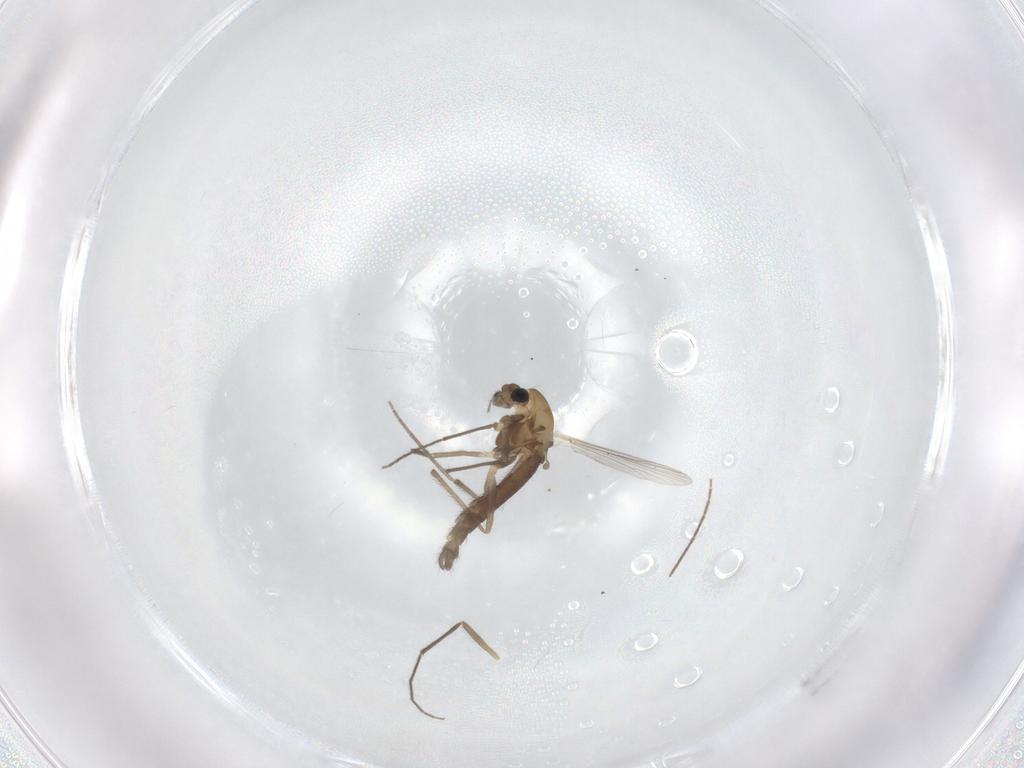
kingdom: Animalia
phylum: Arthropoda
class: Insecta
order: Diptera
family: Chironomidae
